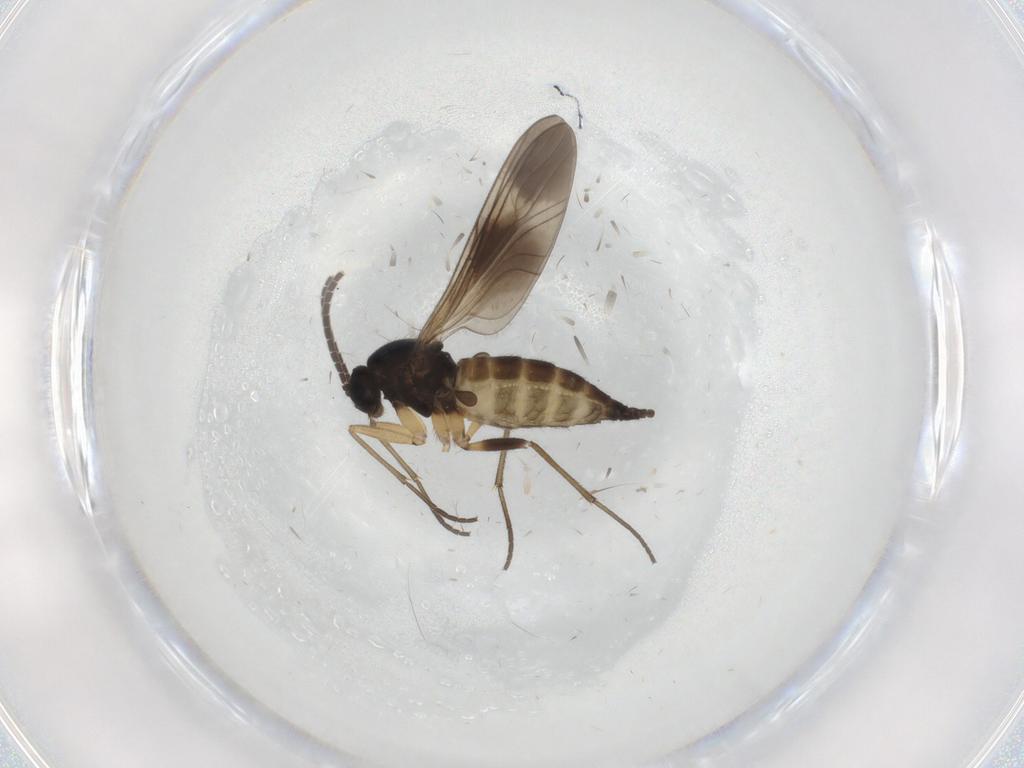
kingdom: Animalia
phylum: Arthropoda
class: Insecta
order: Diptera
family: Sciaridae
